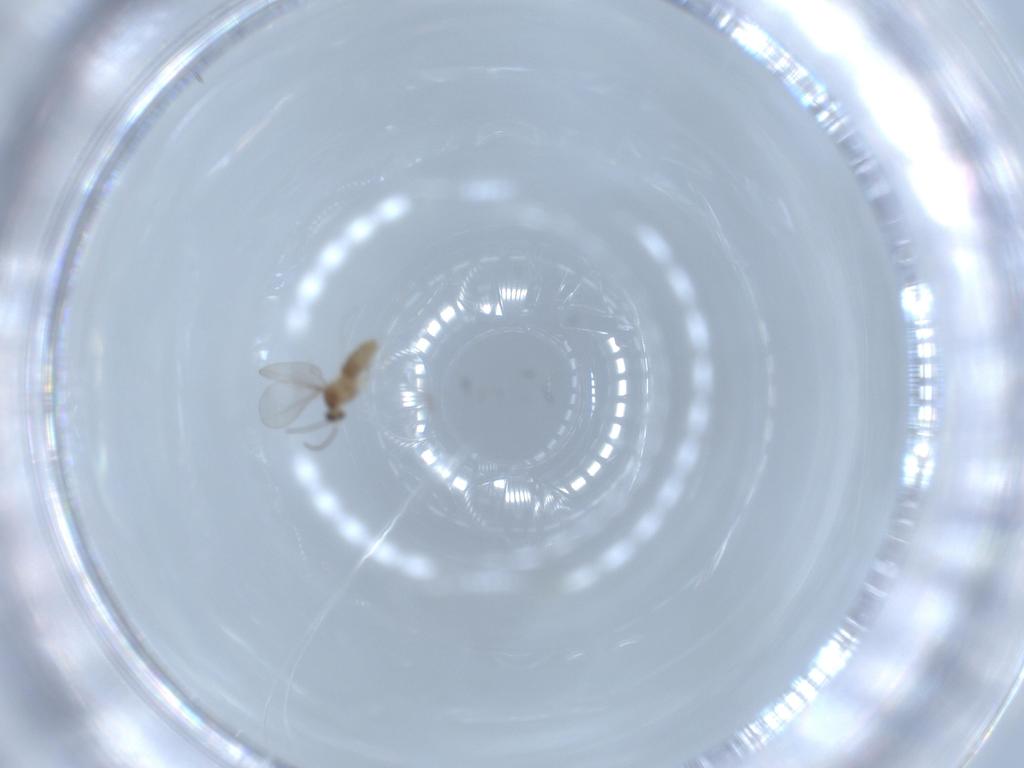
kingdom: Animalia
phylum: Arthropoda
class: Insecta
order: Diptera
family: Cecidomyiidae
